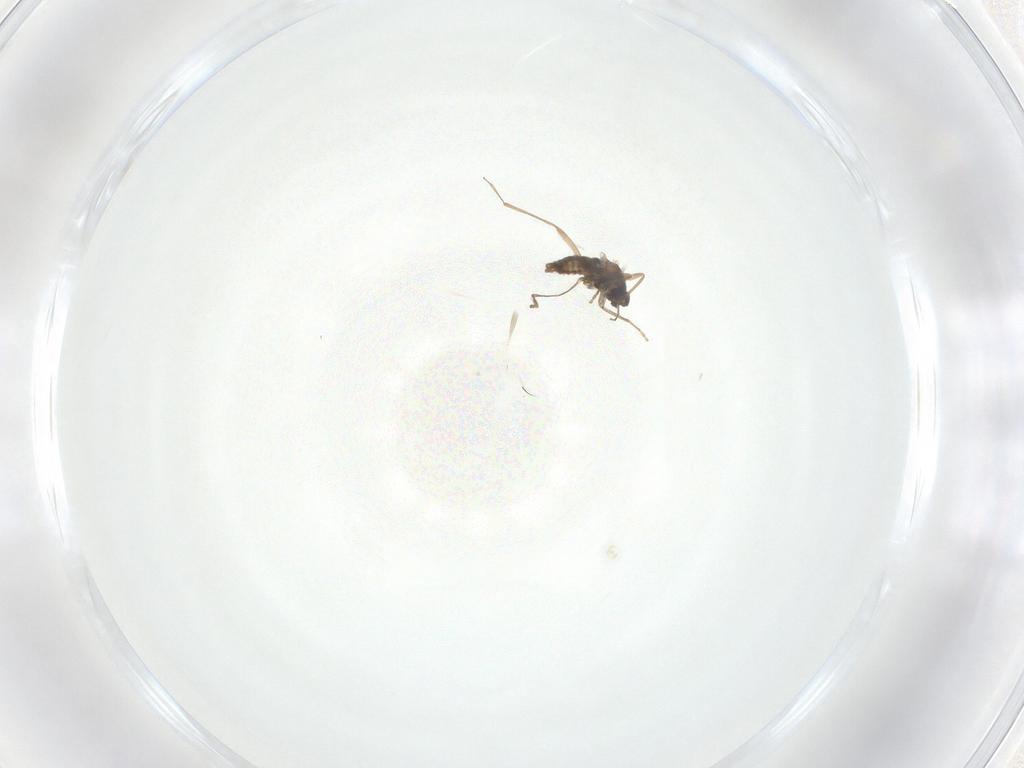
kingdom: Animalia
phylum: Arthropoda
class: Insecta
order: Diptera
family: Cecidomyiidae
